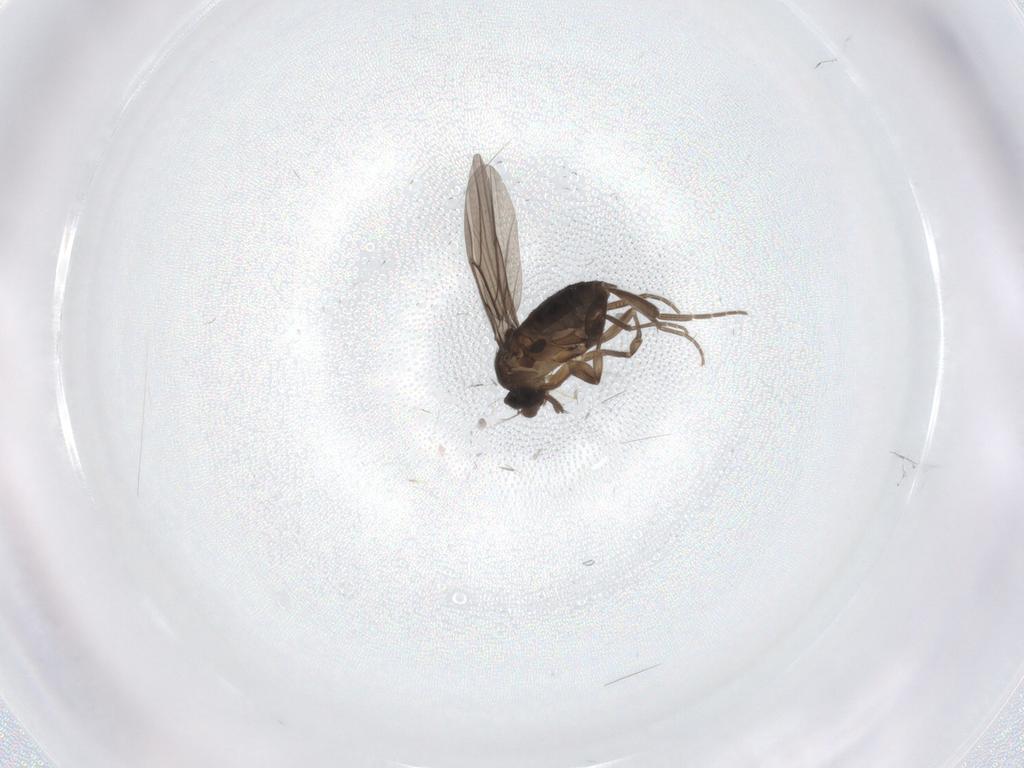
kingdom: Animalia
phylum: Arthropoda
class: Insecta
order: Diptera
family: Phoridae
